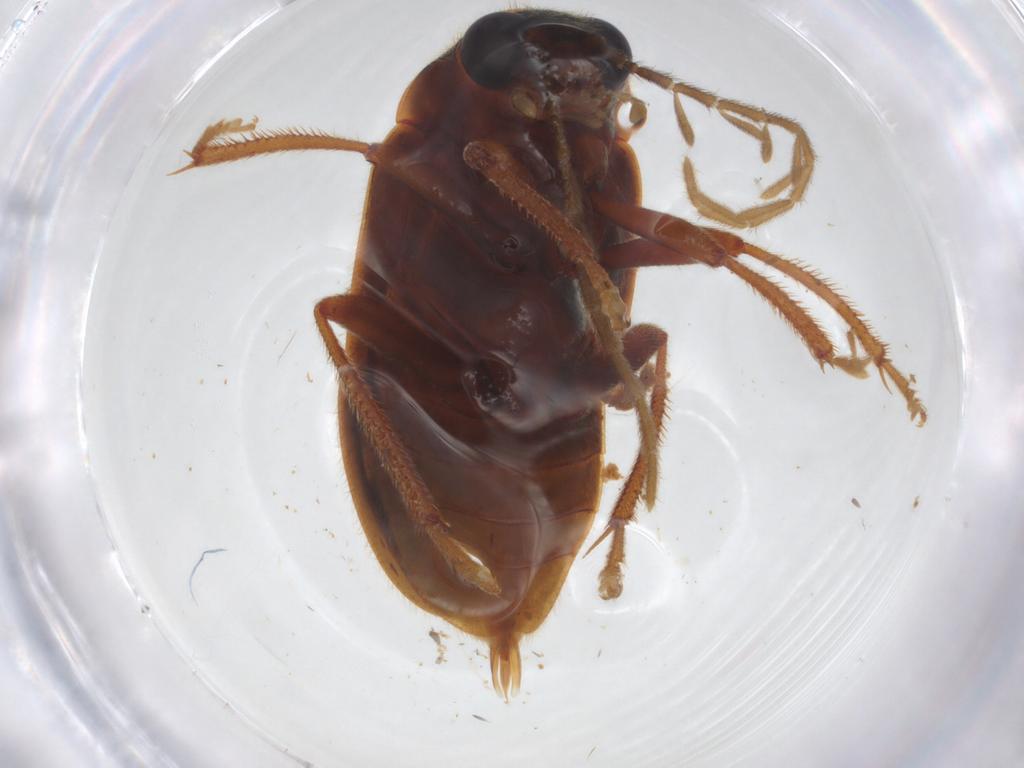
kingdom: Animalia
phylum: Arthropoda
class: Insecta
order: Coleoptera
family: Ptilodactylidae
